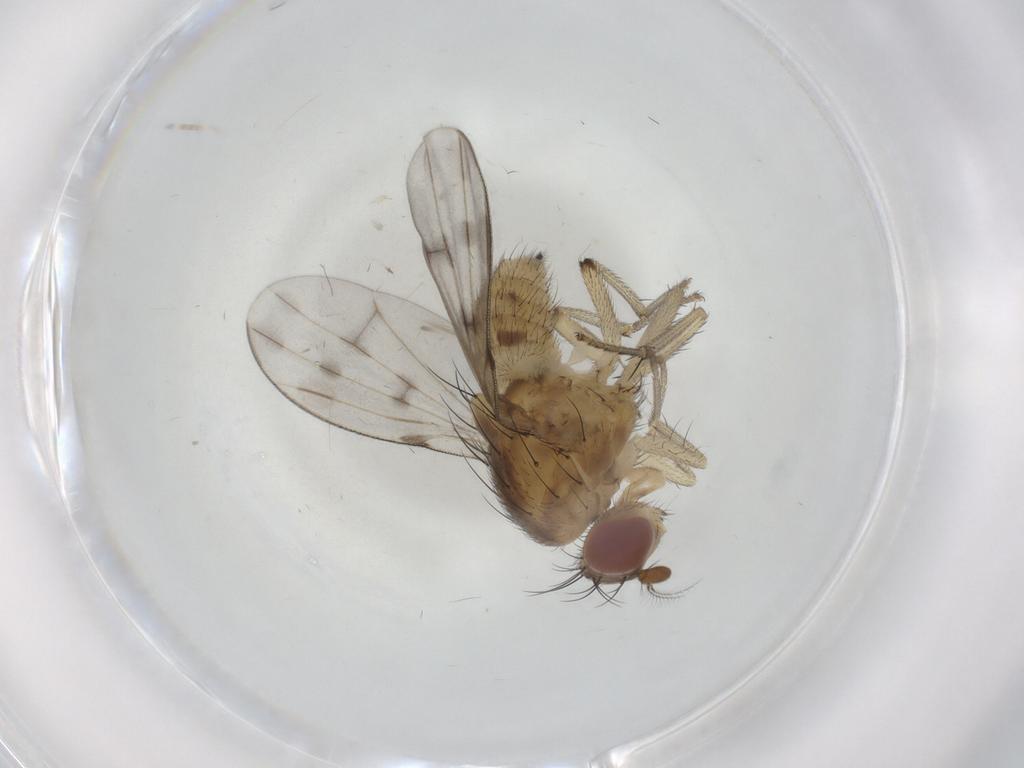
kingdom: Animalia
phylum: Arthropoda
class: Insecta
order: Diptera
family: Lauxaniidae
